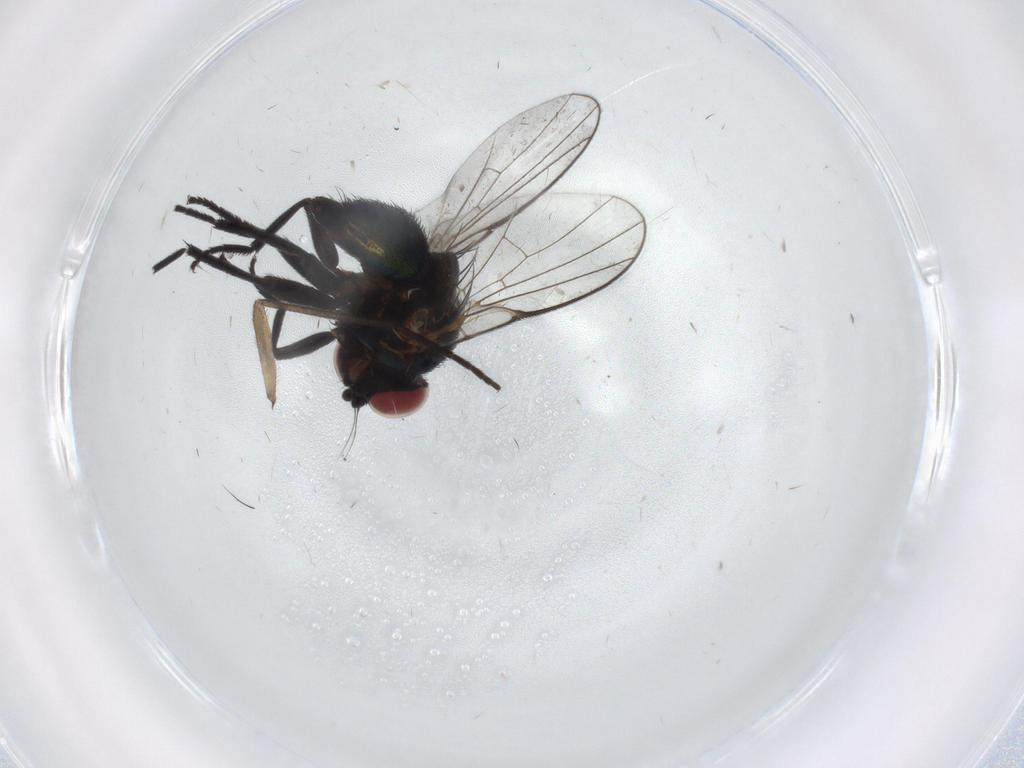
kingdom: Animalia
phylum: Arthropoda
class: Insecta
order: Diptera
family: Agromyzidae
